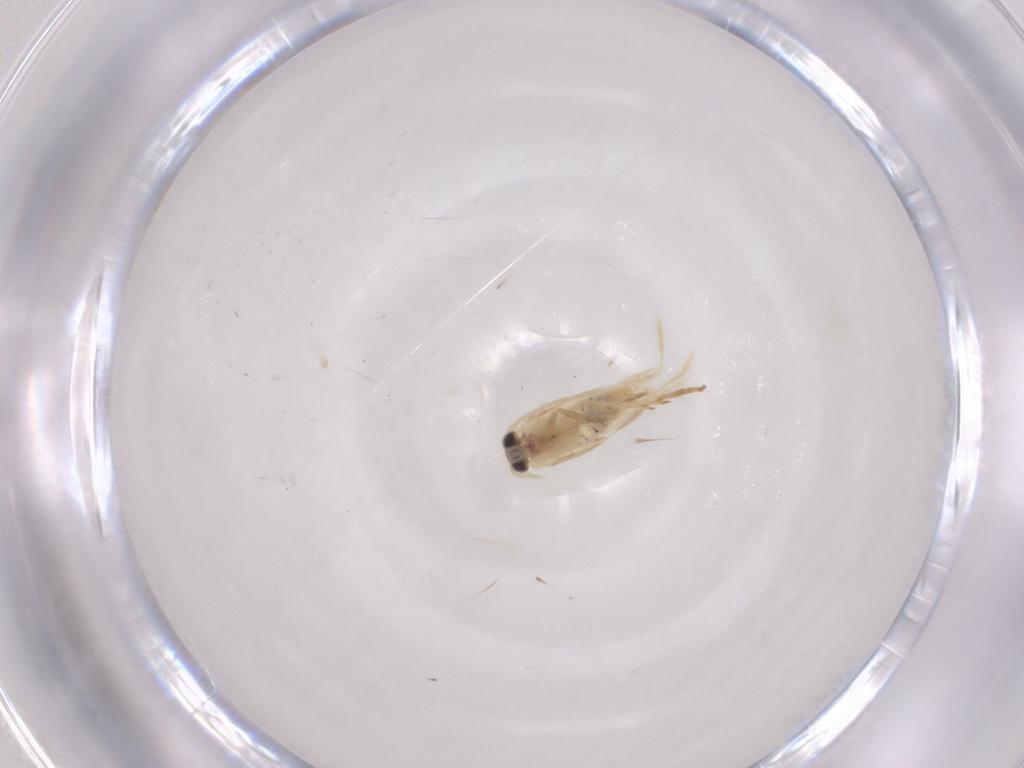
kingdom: Animalia
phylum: Arthropoda
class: Insecta
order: Lepidoptera
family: Nepticulidae
